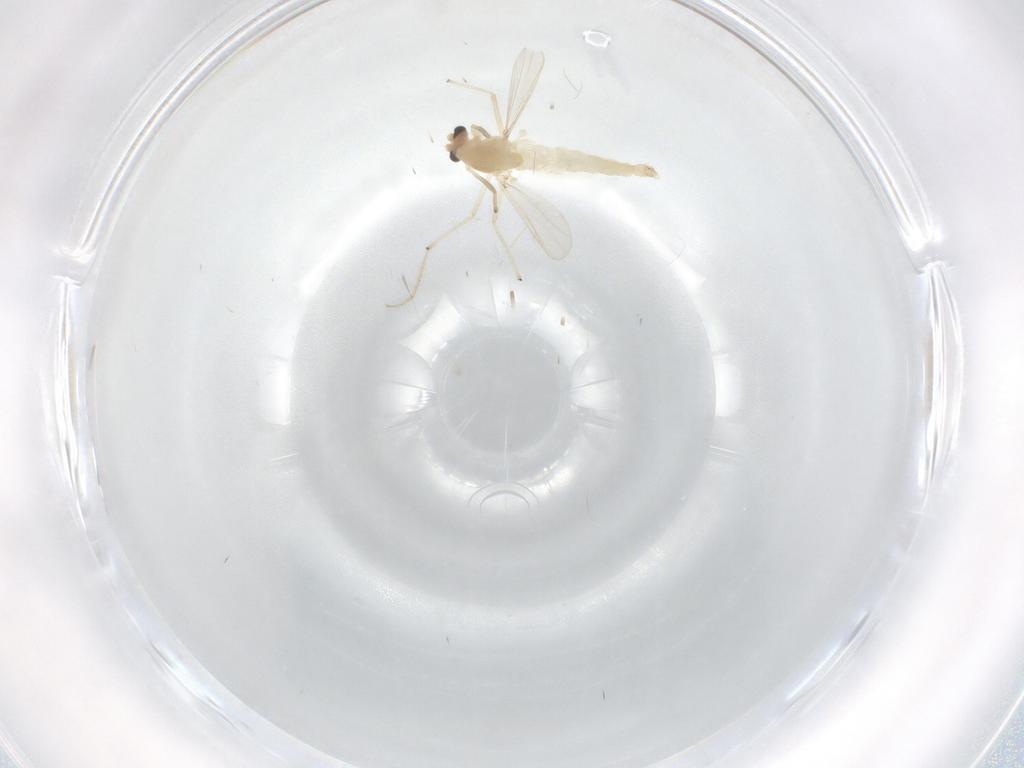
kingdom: Animalia
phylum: Arthropoda
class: Insecta
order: Diptera
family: Chironomidae
